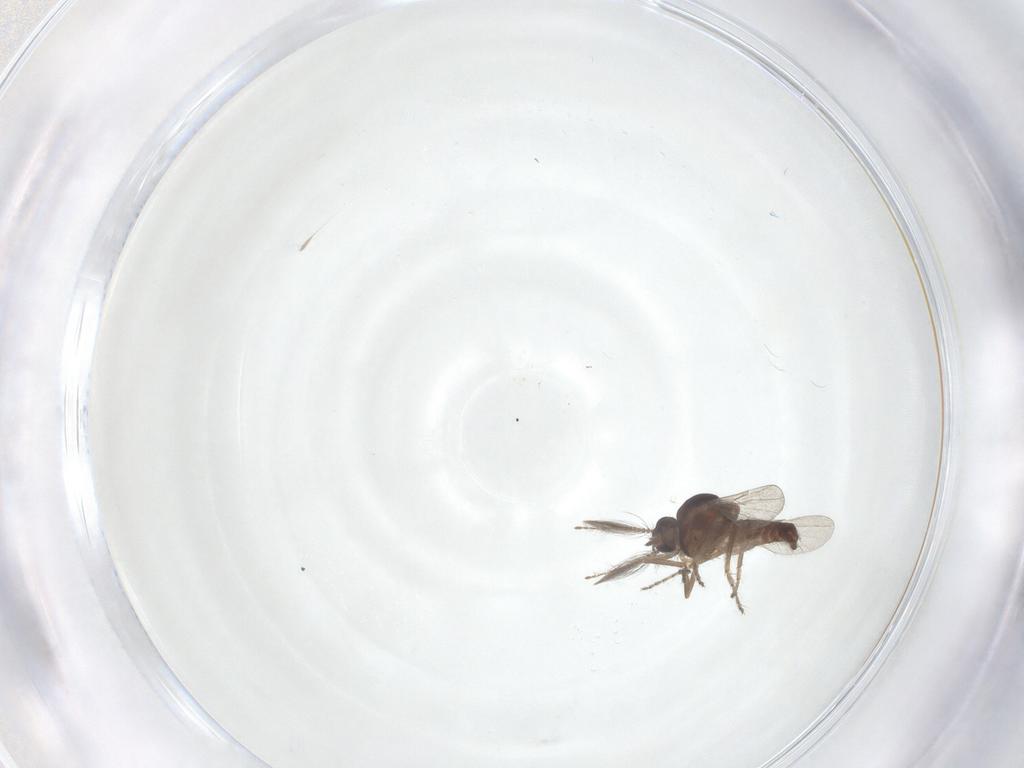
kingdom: Animalia
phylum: Arthropoda
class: Insecta
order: Diptera
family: Ceratopogonidae
